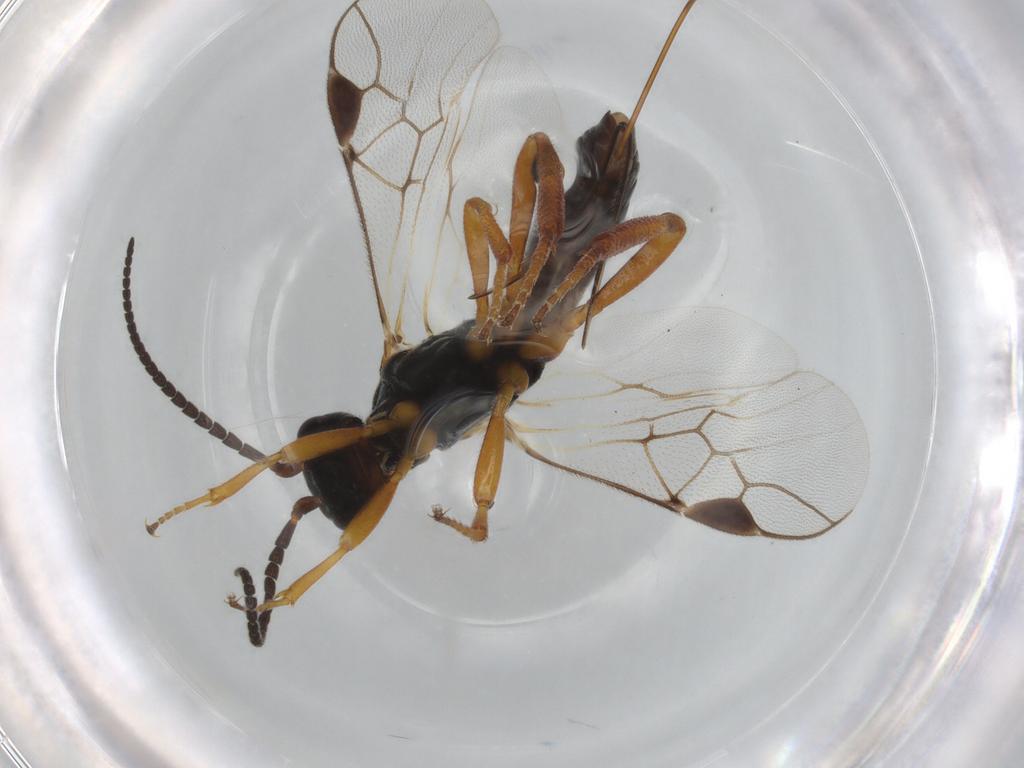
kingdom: Animalia
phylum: Arthropoda
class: Insecta
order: Hymenoptera
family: Braconidae
